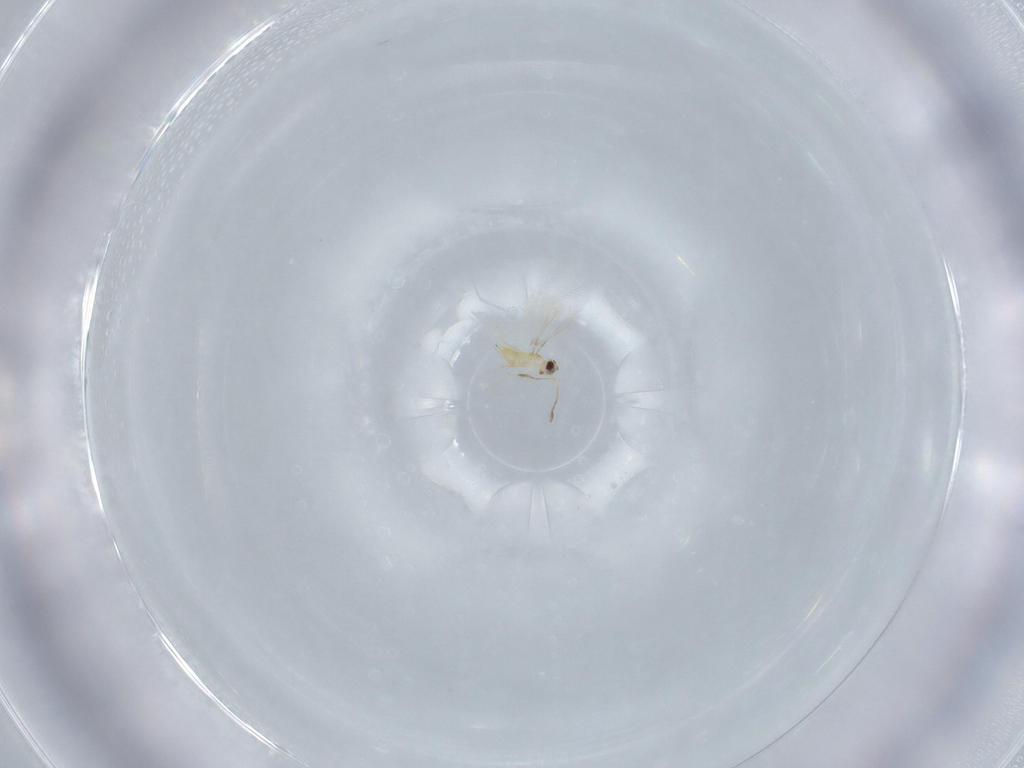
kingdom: Animalia
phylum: Arthropoda
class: Insecta
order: Hymenoptera
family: Mymaridae
